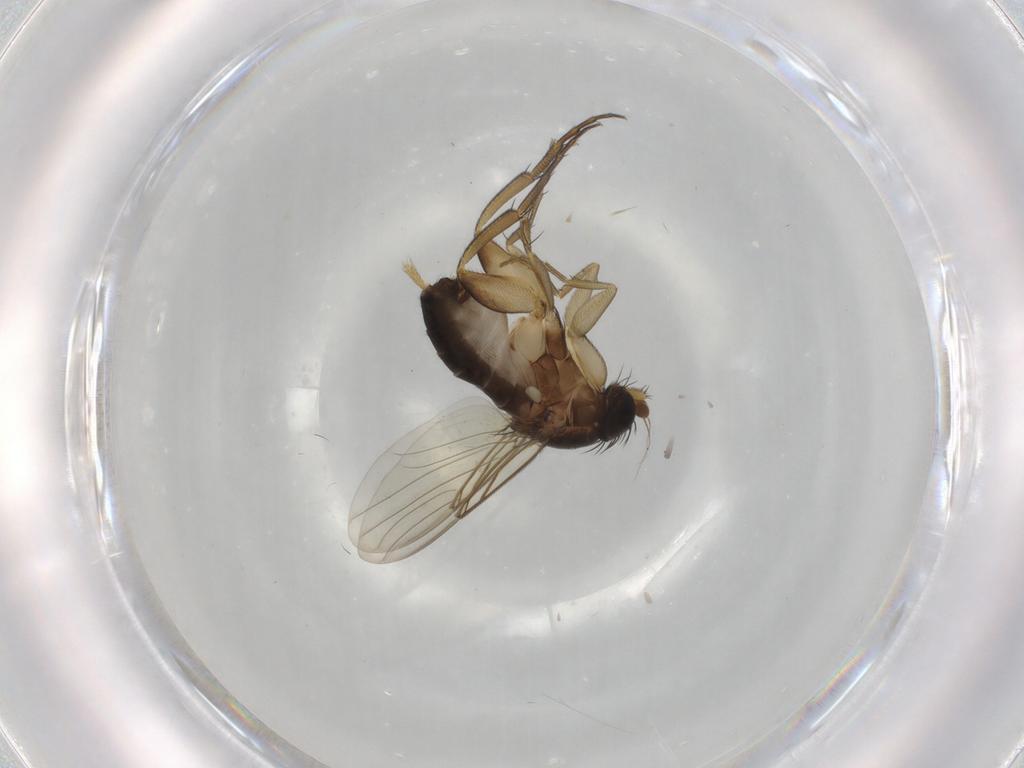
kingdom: Animalia
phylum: Arthropoda
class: Insecta
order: Diptera
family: Phoridae
